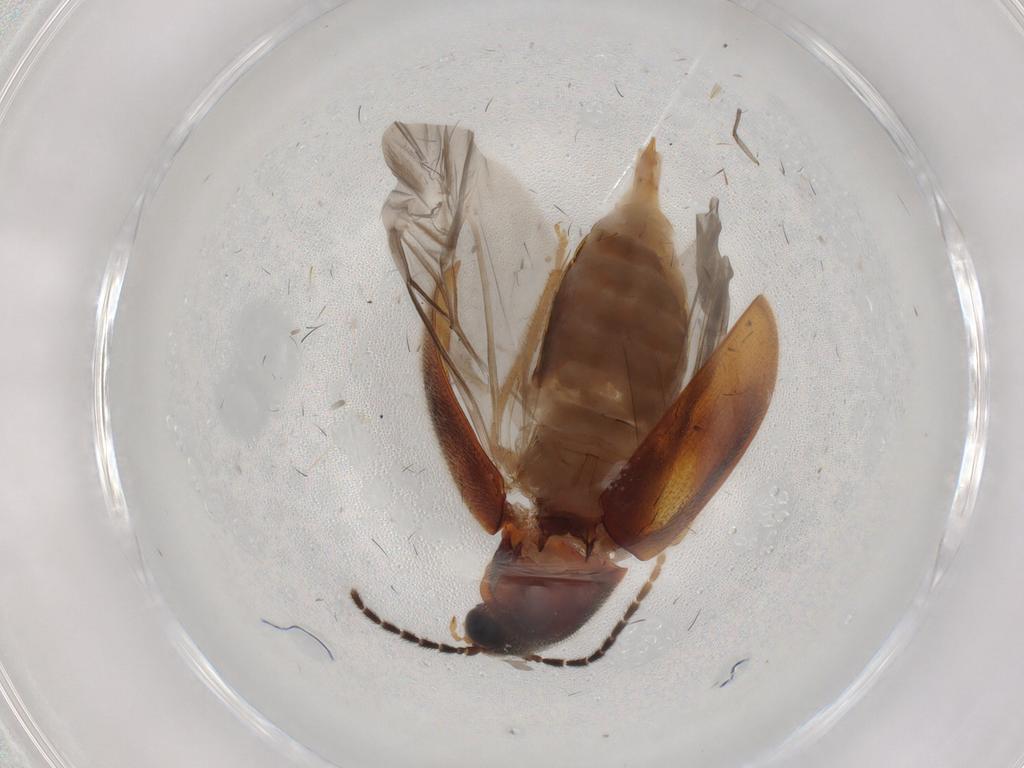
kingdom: Animalia
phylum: Arthropoda
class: Insecta
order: Coleoptera
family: Ptilodactylidae
